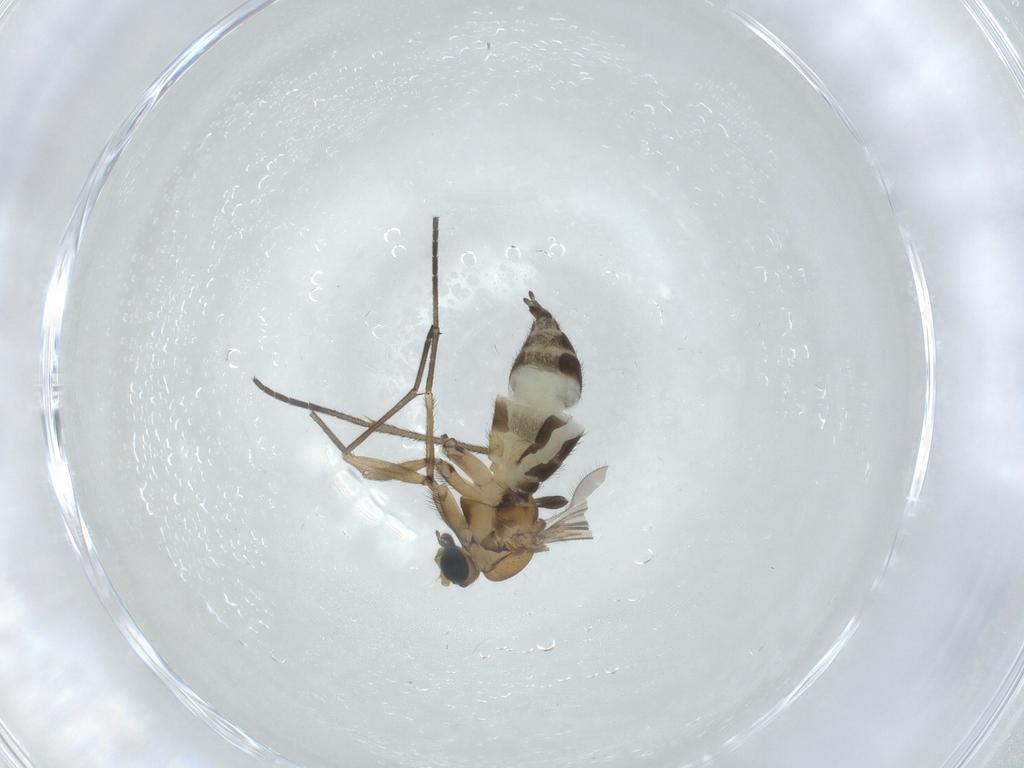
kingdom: Animalia
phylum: Arthropoda
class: Insecta
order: Diptera
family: Sciaridae
